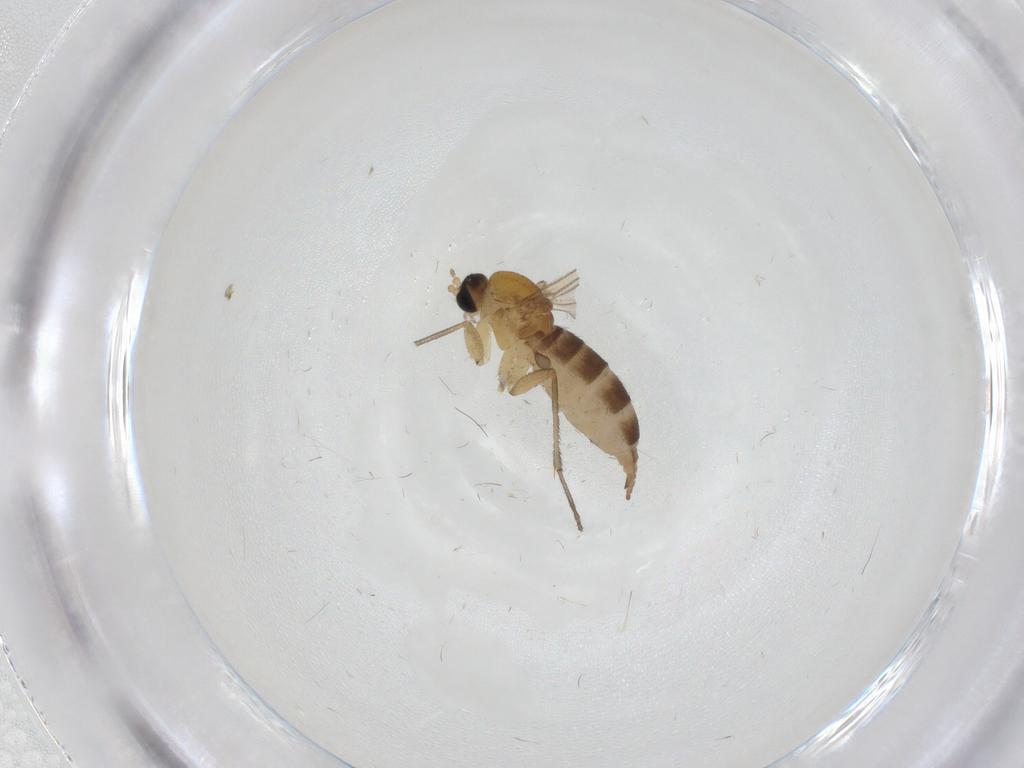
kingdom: Animalia
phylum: Arthropoda
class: Insecta
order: Diptera
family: Sciaridae
